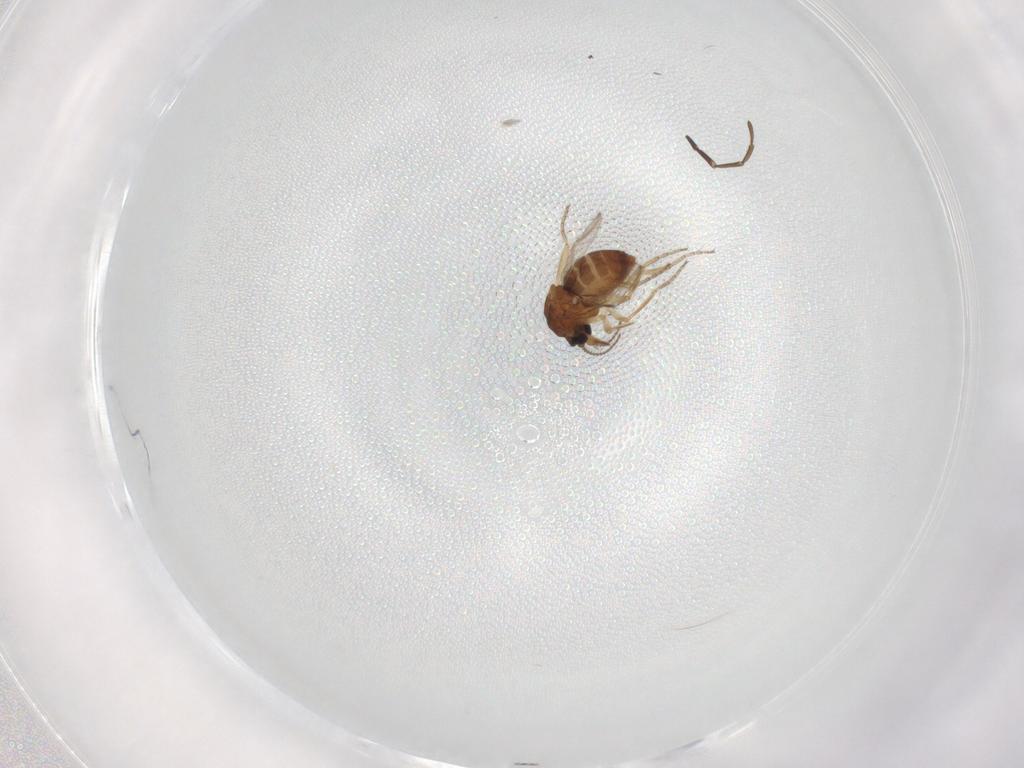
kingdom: Animalia
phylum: Arthropoda
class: Insecta
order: Diptera
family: Ceratopogonidae
